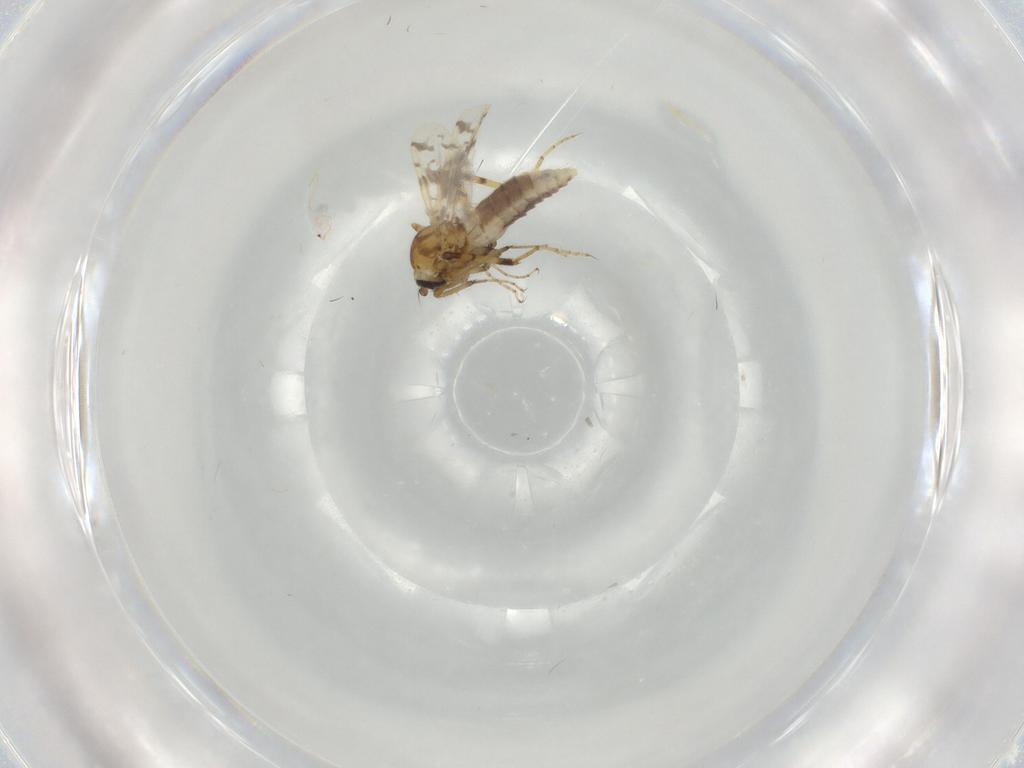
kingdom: Animalia
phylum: Arthropoda
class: Insecta
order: Diptera
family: Ceratopogonidae
